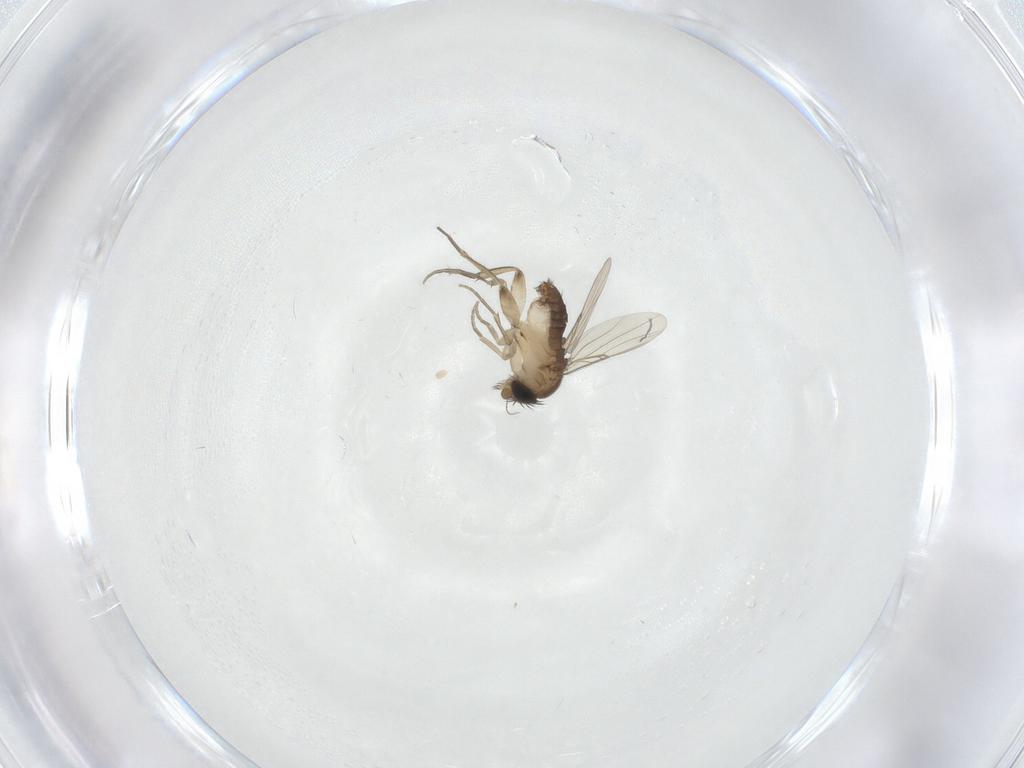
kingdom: Animalia
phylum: Arthropoda
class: Insecta
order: Diptera
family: Phoridae
